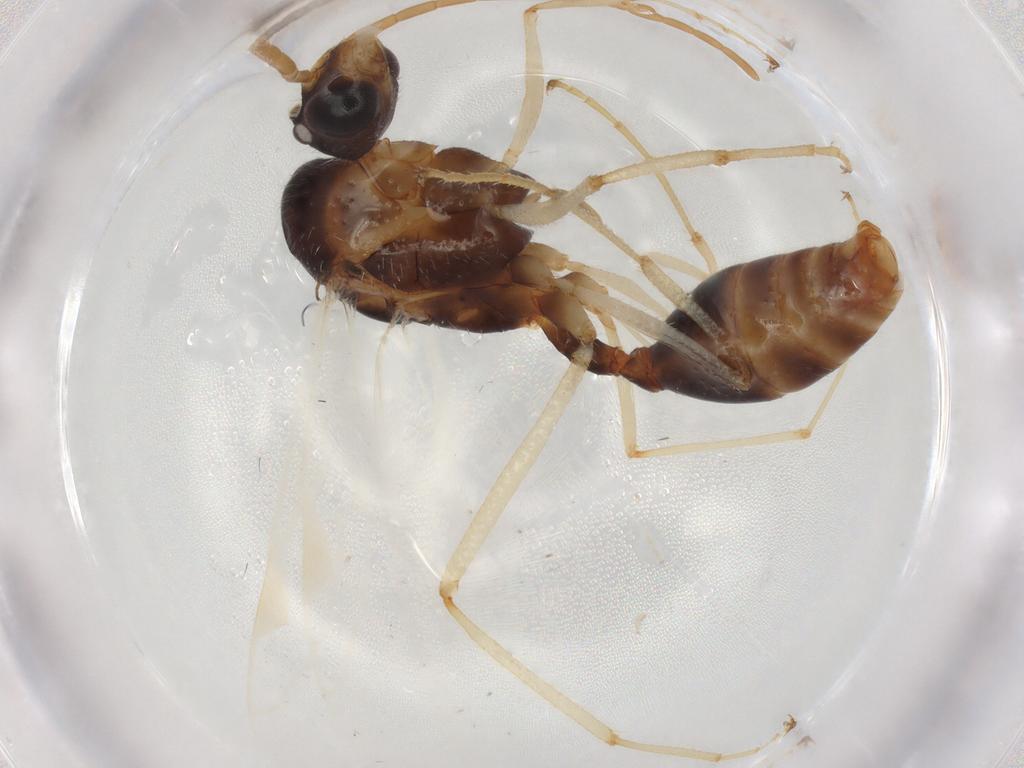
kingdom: Animalia
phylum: Arthropoda
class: Insecta
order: Hymenoptera
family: Formicidae
